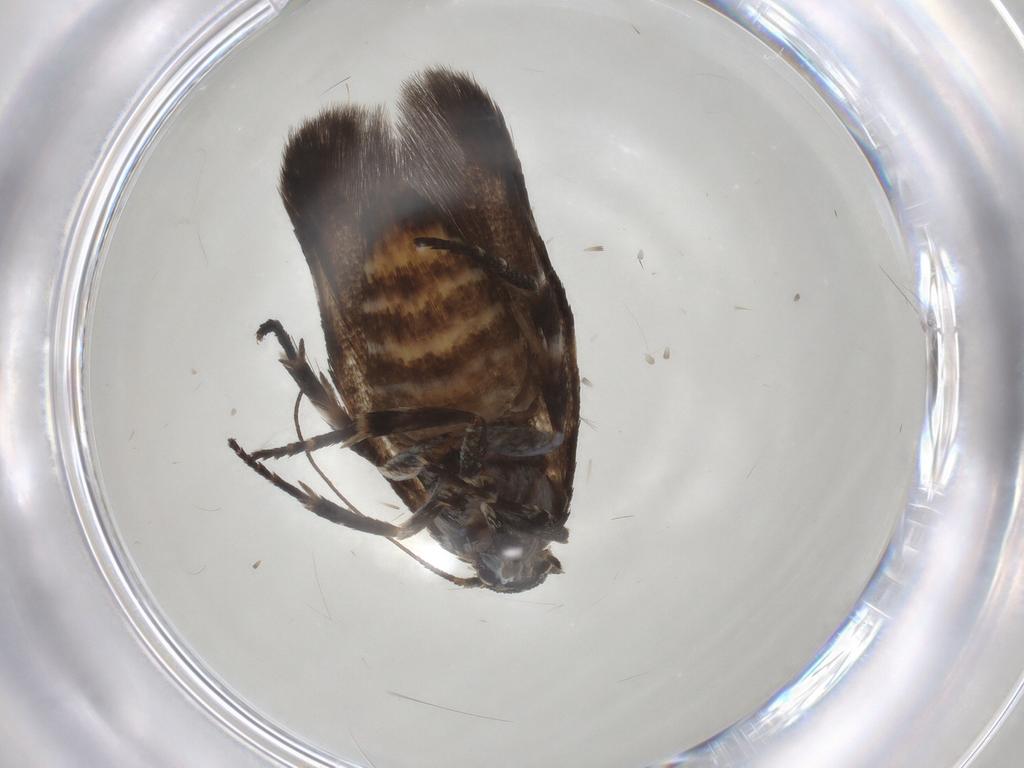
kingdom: Animalia
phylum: Arthropoda
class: Insecta
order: Lepidoptera
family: Scythrididae
